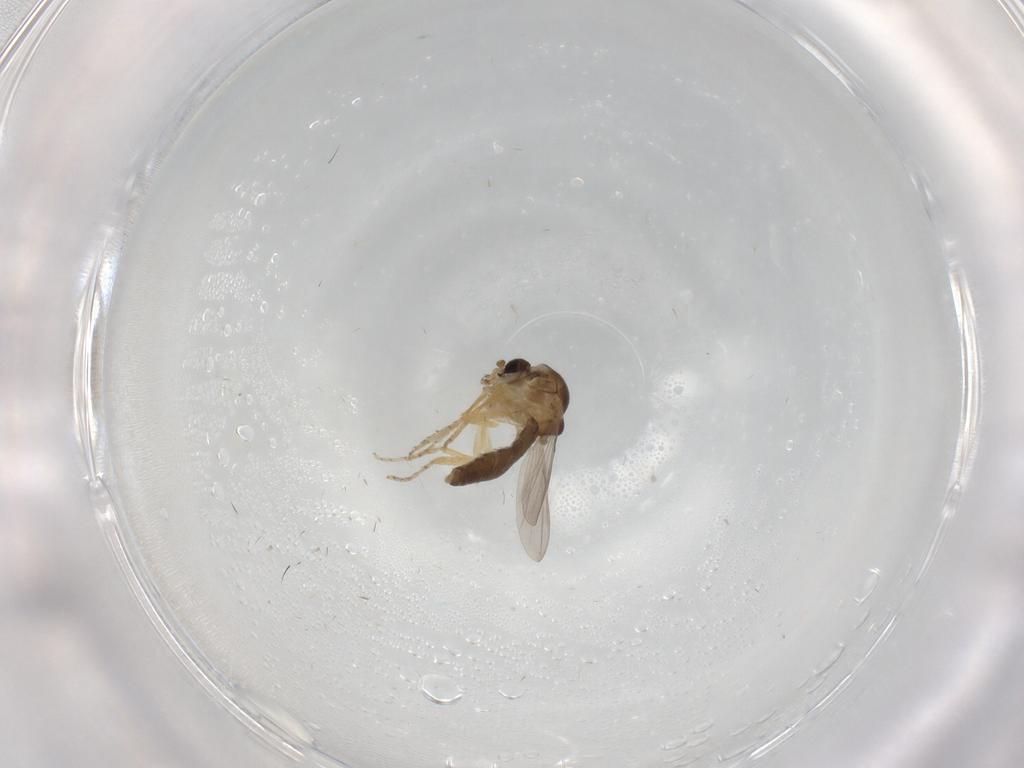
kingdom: Animalia
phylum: Arthropoda
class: Insecta
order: Diptera
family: Ceratopogonidae
